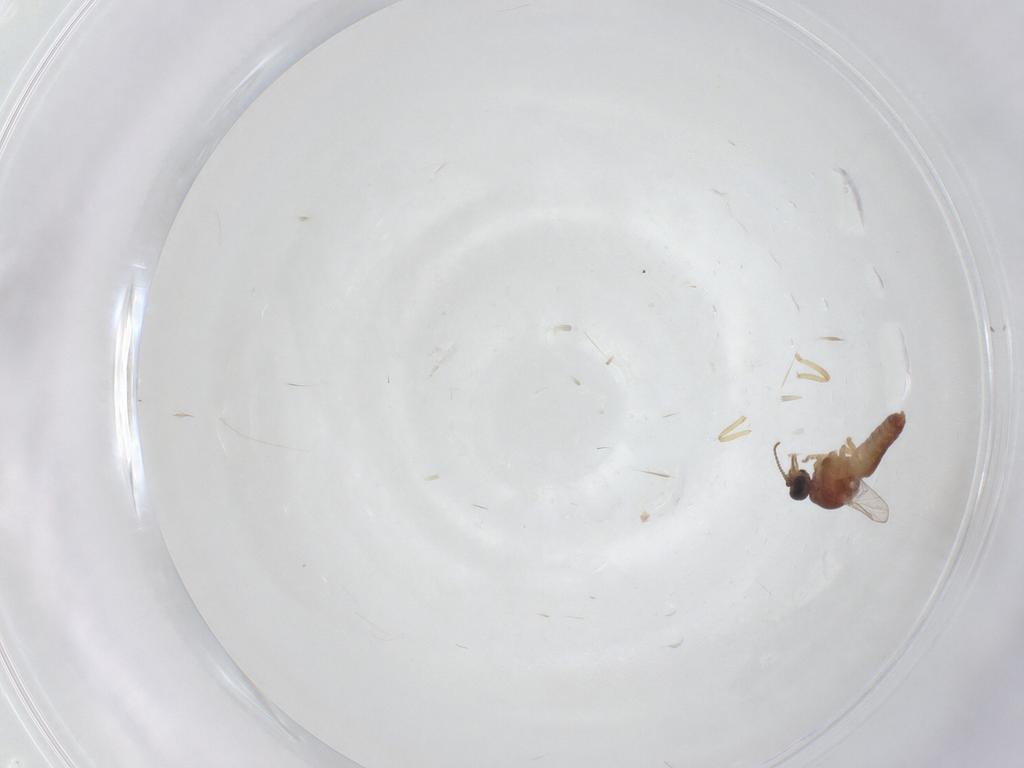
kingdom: Animalia
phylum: Arthropoda
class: Insecta
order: Diptera
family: Ceratopogonidae
